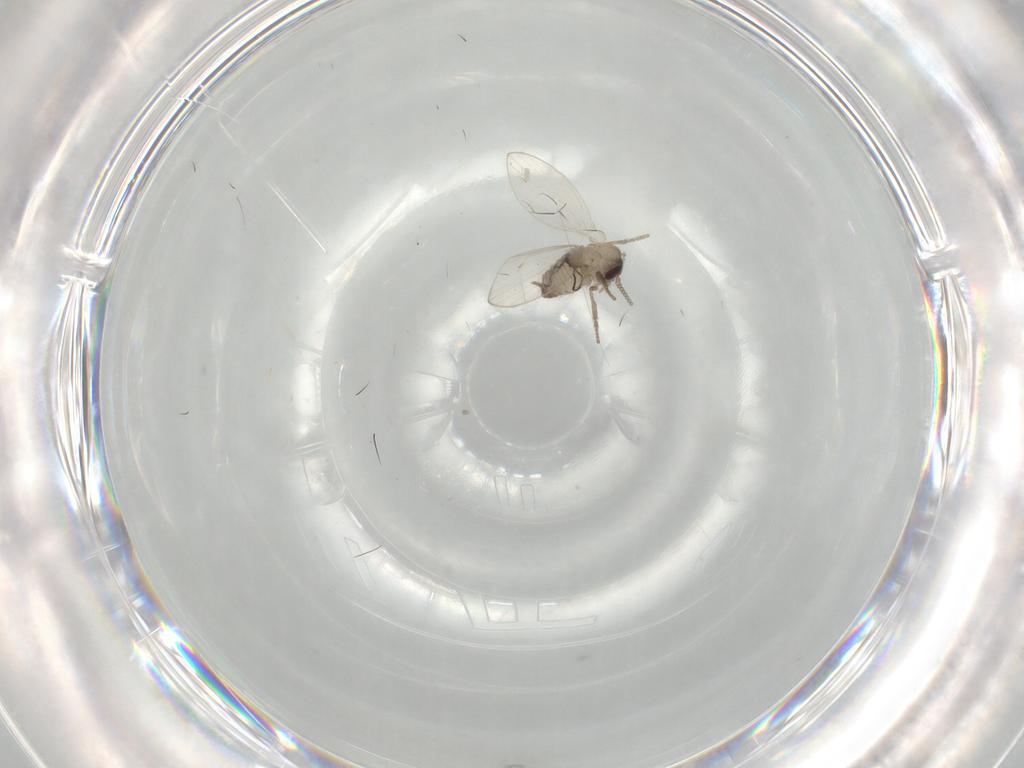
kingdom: Animalia
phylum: Arthropoda
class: Insecta
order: Diptera
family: Psychodidae
